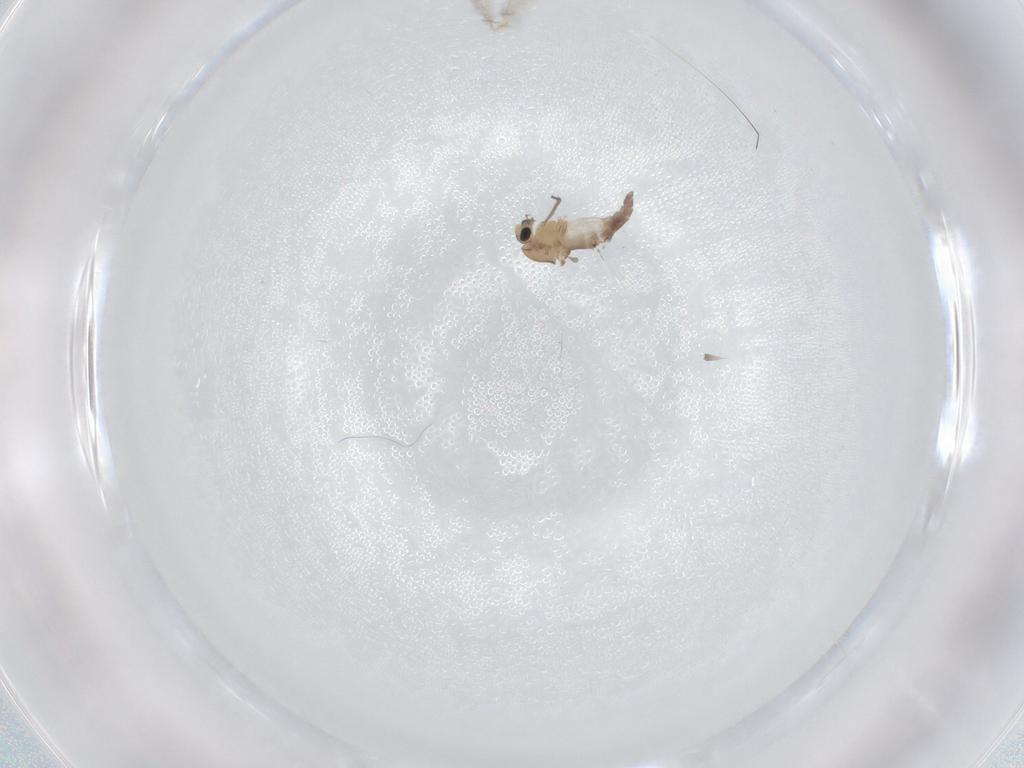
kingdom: Animalia
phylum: Arthropoda
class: Insecta
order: Diptera
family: Chironomidae
